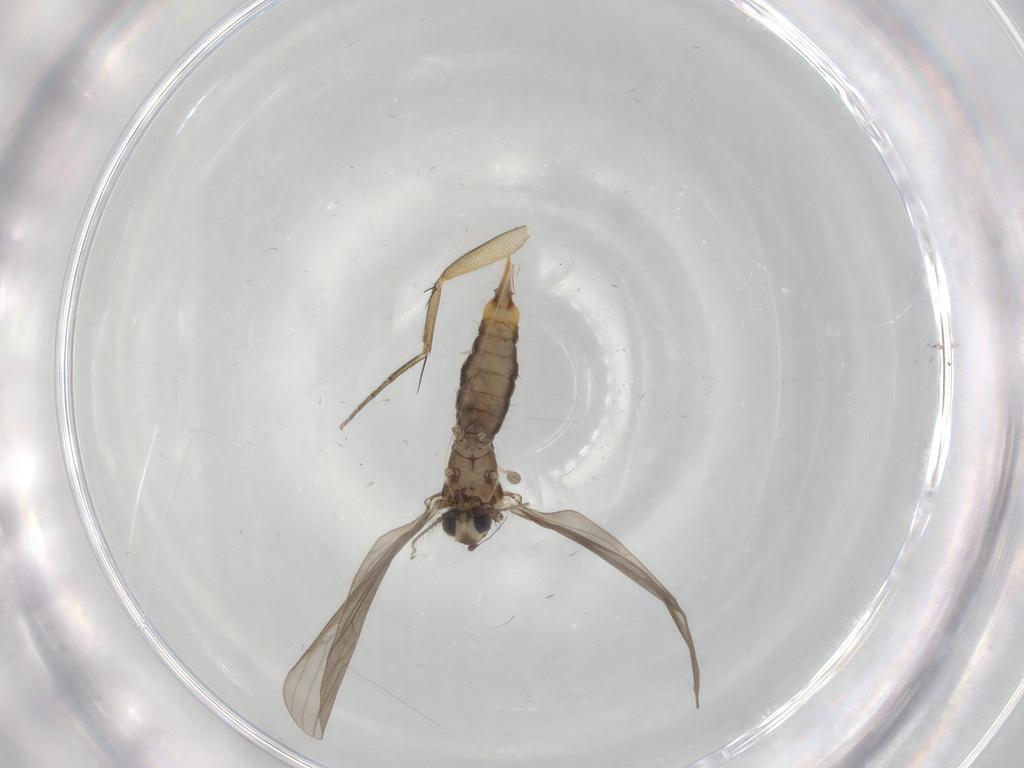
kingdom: Animalia
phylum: Arthropoda
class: Insecta
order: Diptera
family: Limoniidae
